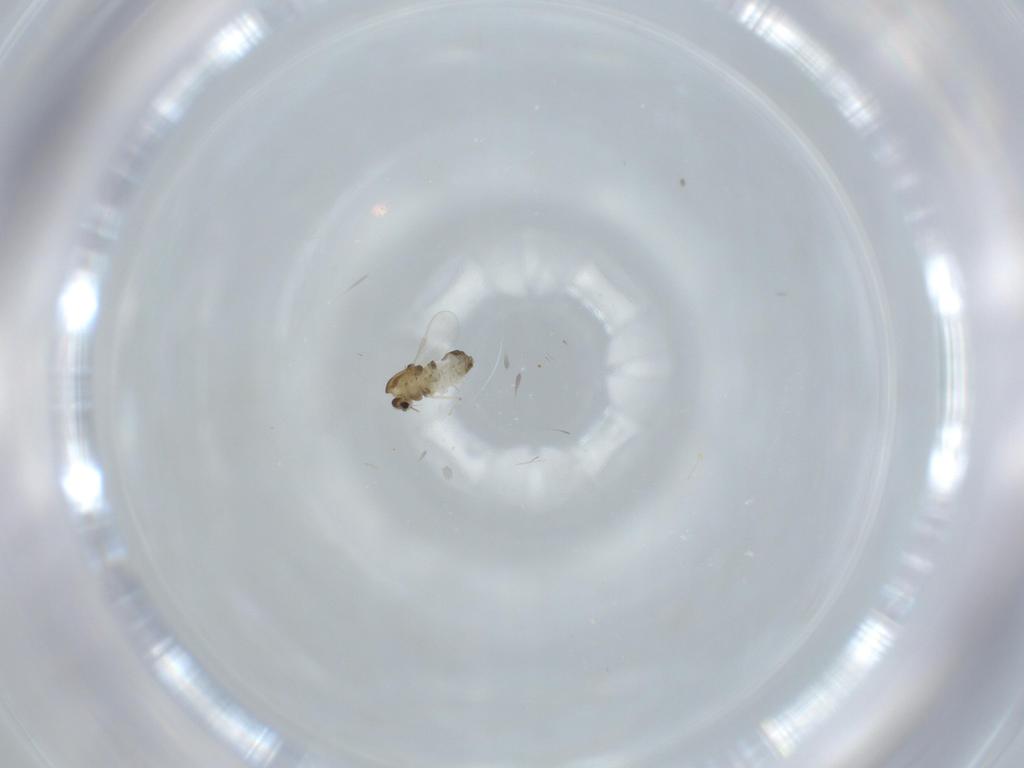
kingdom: Animalia
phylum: Arthropoda
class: Insecta
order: Diptera
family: Chironomidae
